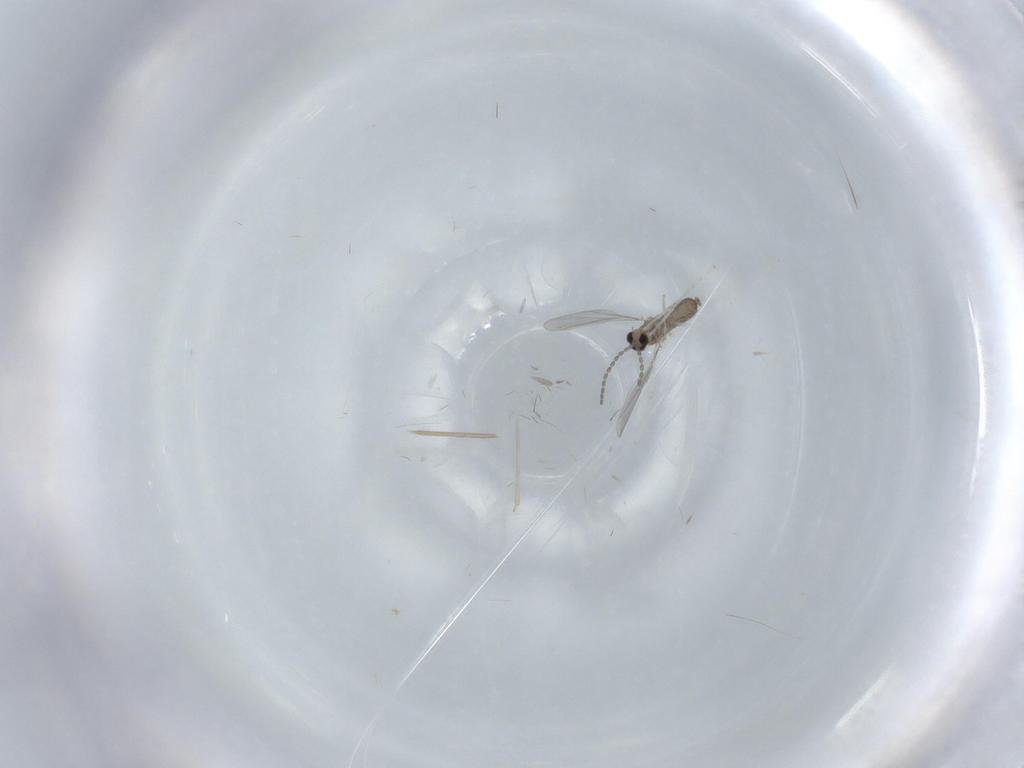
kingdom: Animalia
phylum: Arthropoda
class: Insecta
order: Diptera
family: Cecidomyiidae
